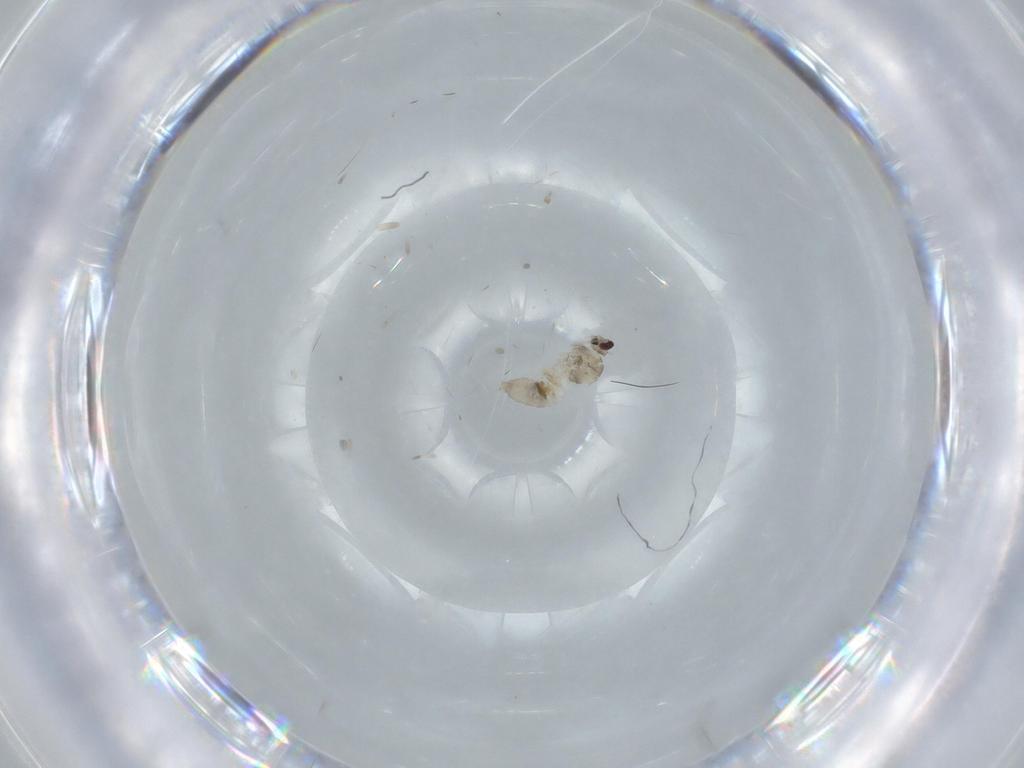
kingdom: Animalia
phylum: Arthropoda
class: Insecta
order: Diptera
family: Cecidomyiidae
